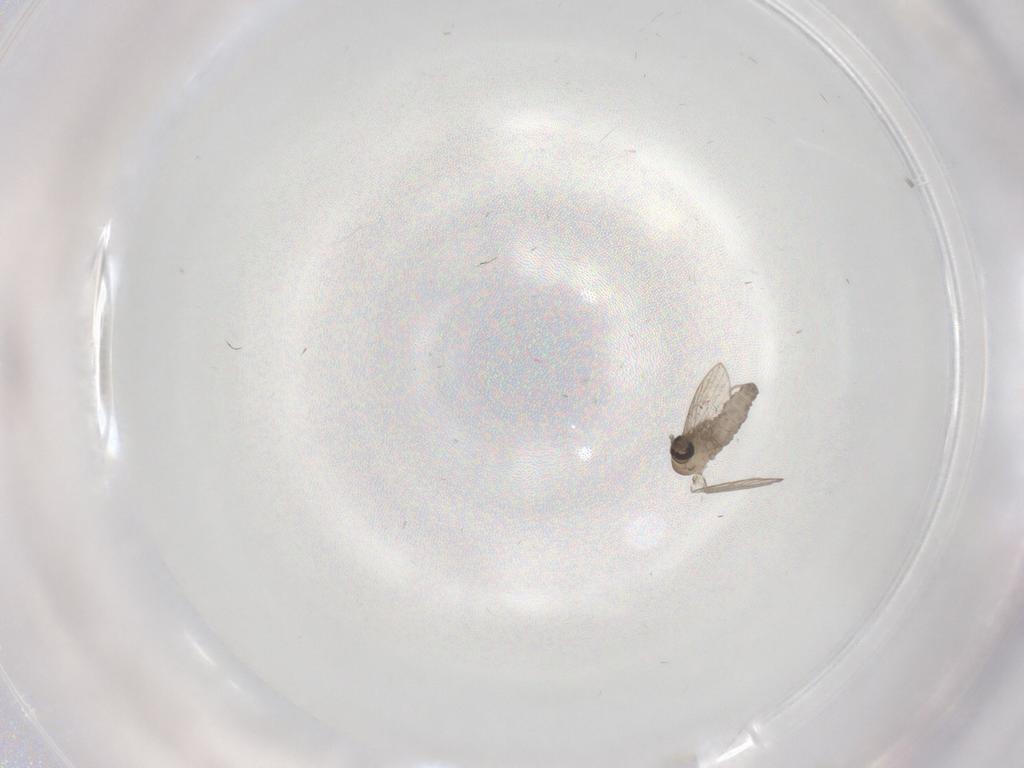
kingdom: Animalia
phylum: Arthropoda
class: Insecta
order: Diptera
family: Psychodidae
